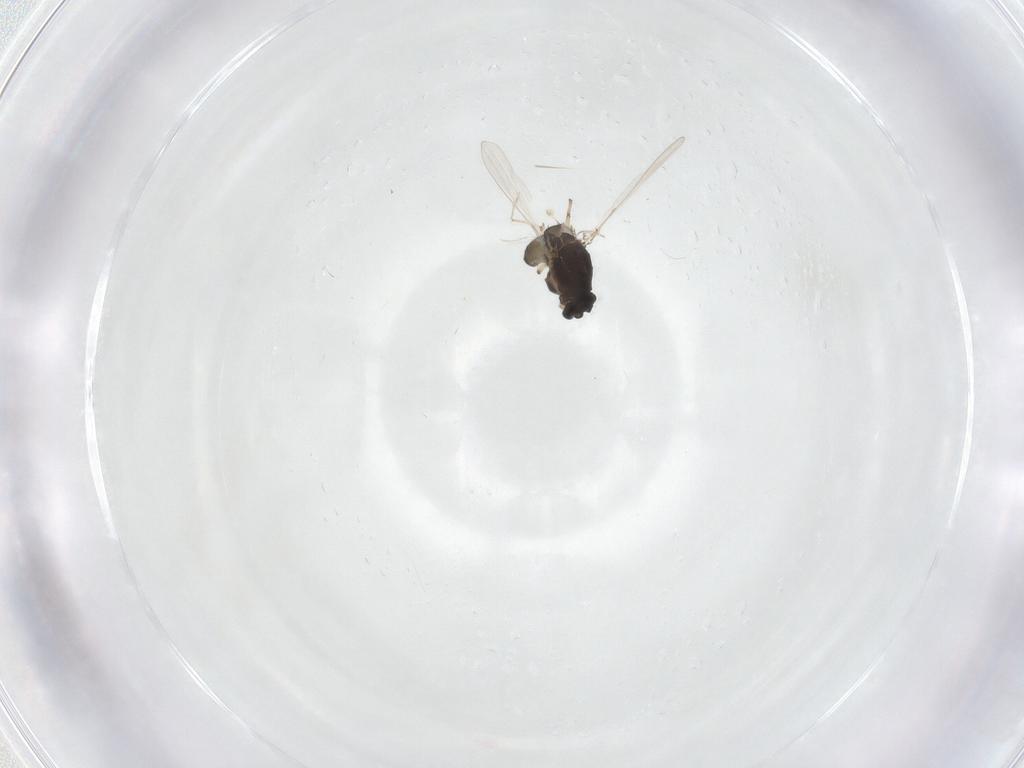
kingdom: Animalia
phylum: Arthropoda
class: Insecta
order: Diptera
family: Chironomidae
